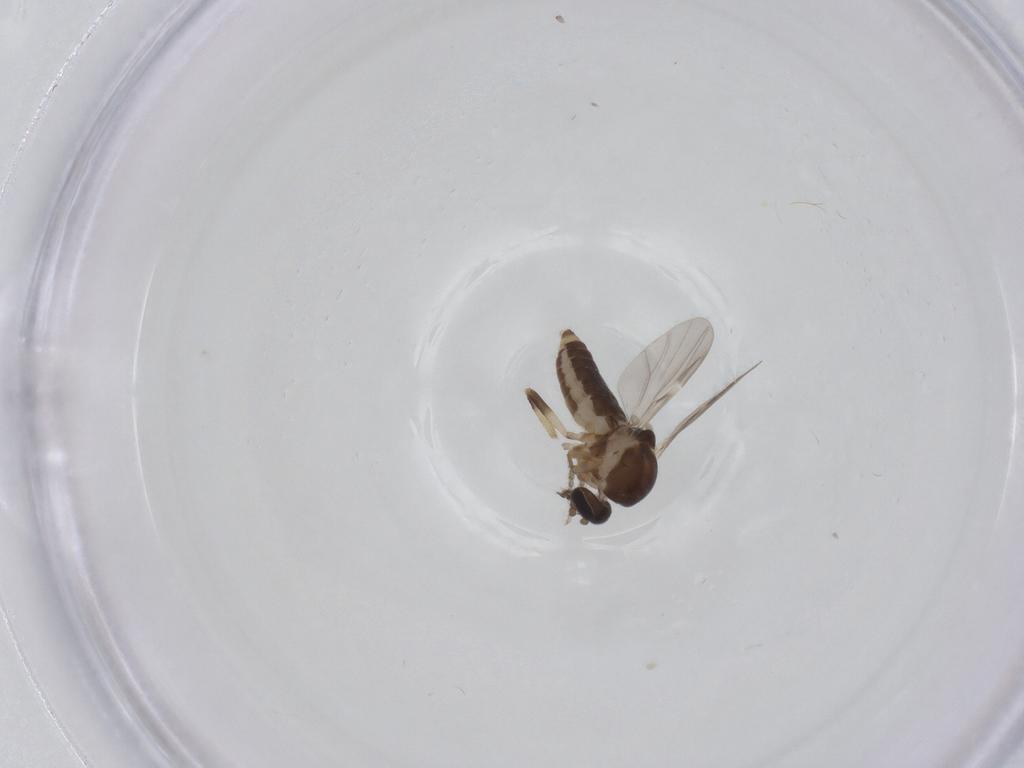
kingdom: Animalia
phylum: Arthropoda
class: Insecta
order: Diptera
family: Ceratopogonidae
